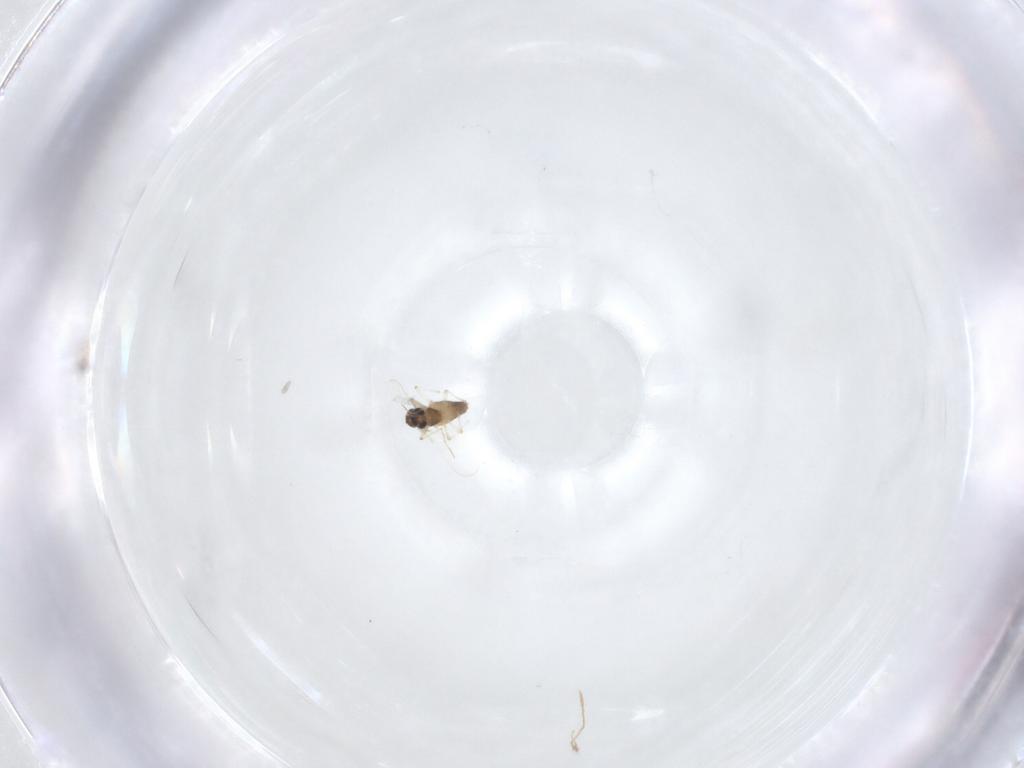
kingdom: Animalia
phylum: Arthropoda
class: Insecta
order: Diptera
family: Chironomidae
